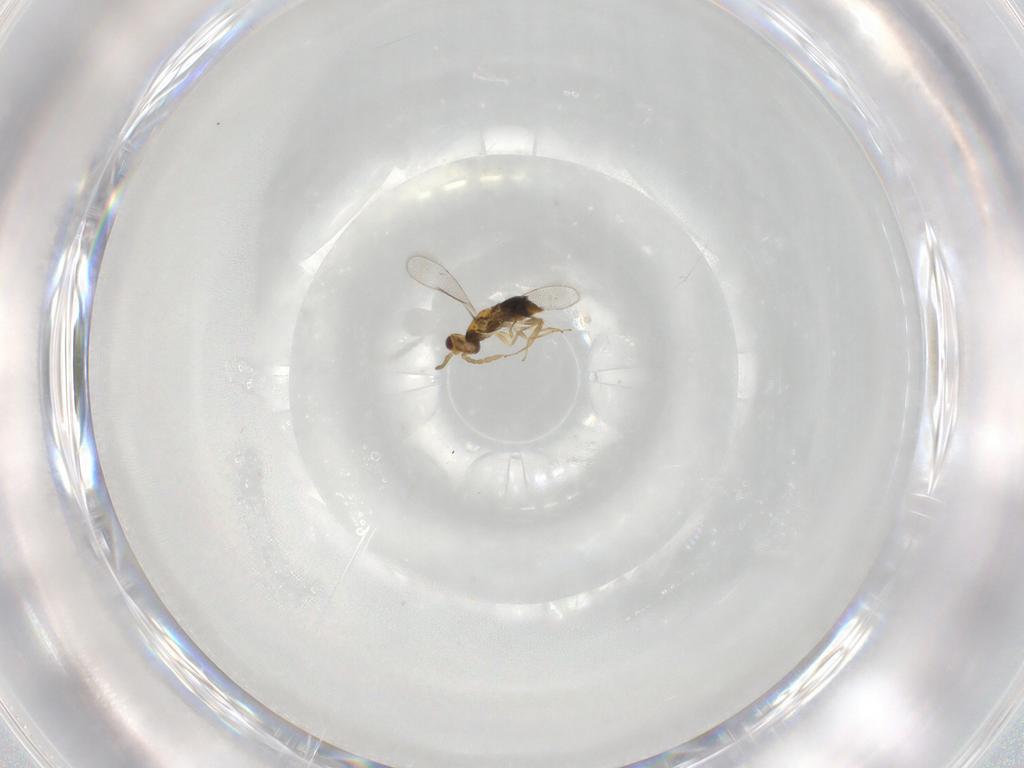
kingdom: Animalia
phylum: Arthropoda
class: Insecta
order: Hymenoptera
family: Aphelinidae
